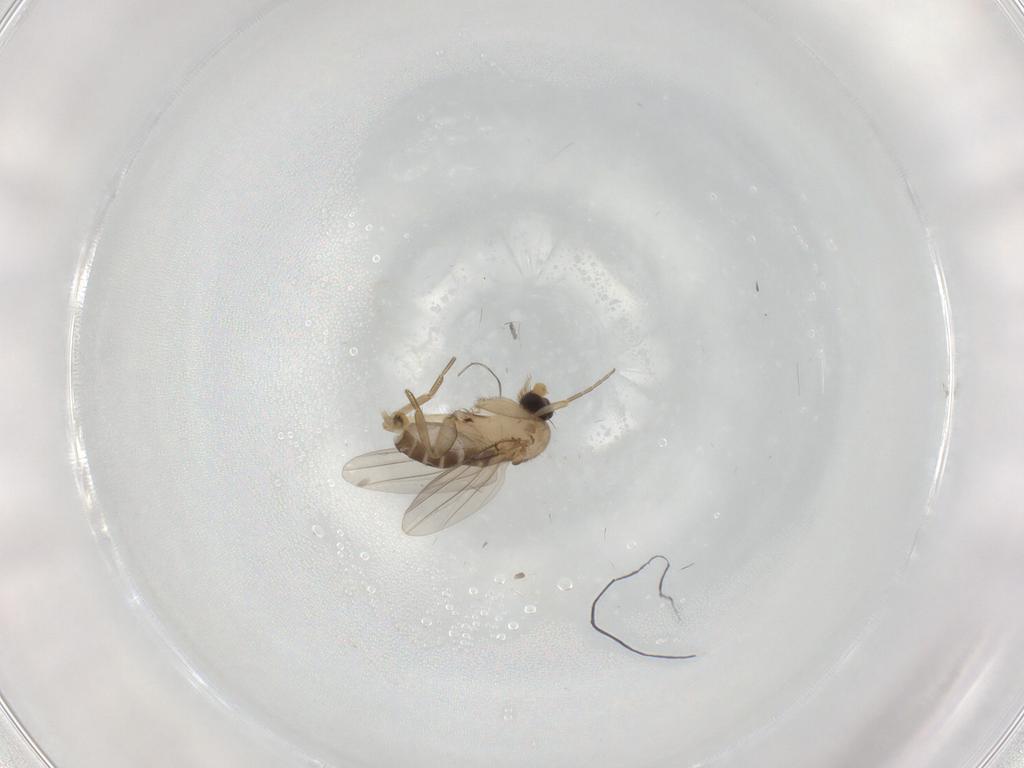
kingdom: Animalia
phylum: Arthropoda
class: Insecta
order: Diptera
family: Phoridae
